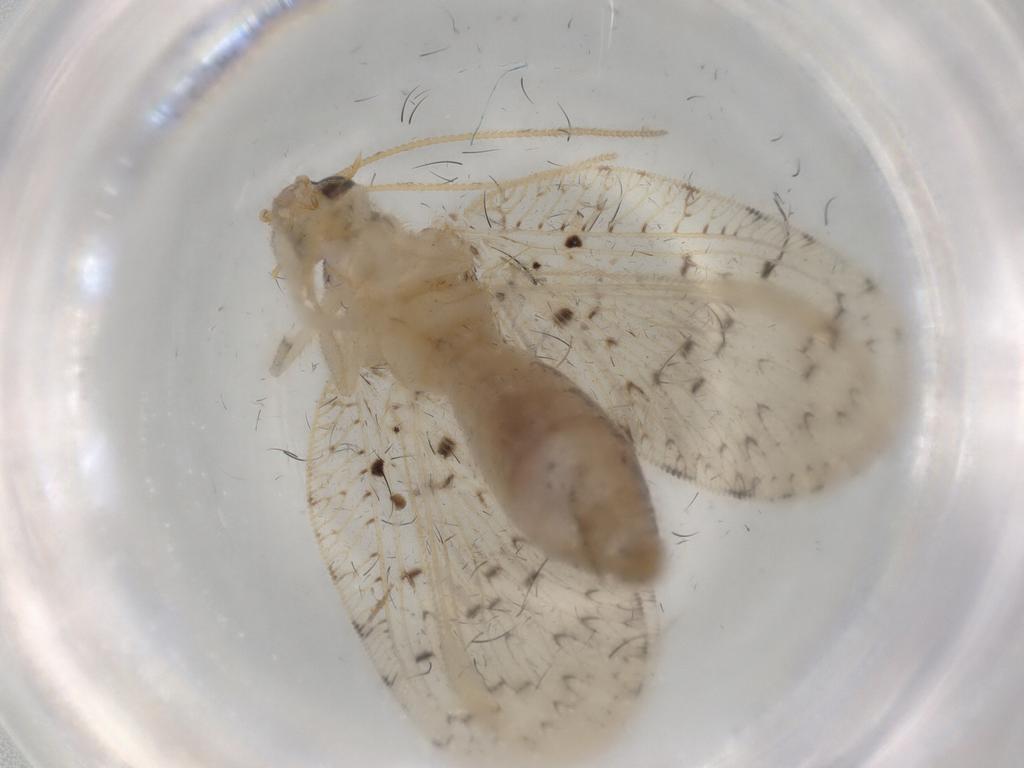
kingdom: Animalia
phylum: Arthropoda
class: Insecta
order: Neuroptera
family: Hemerobiidae
